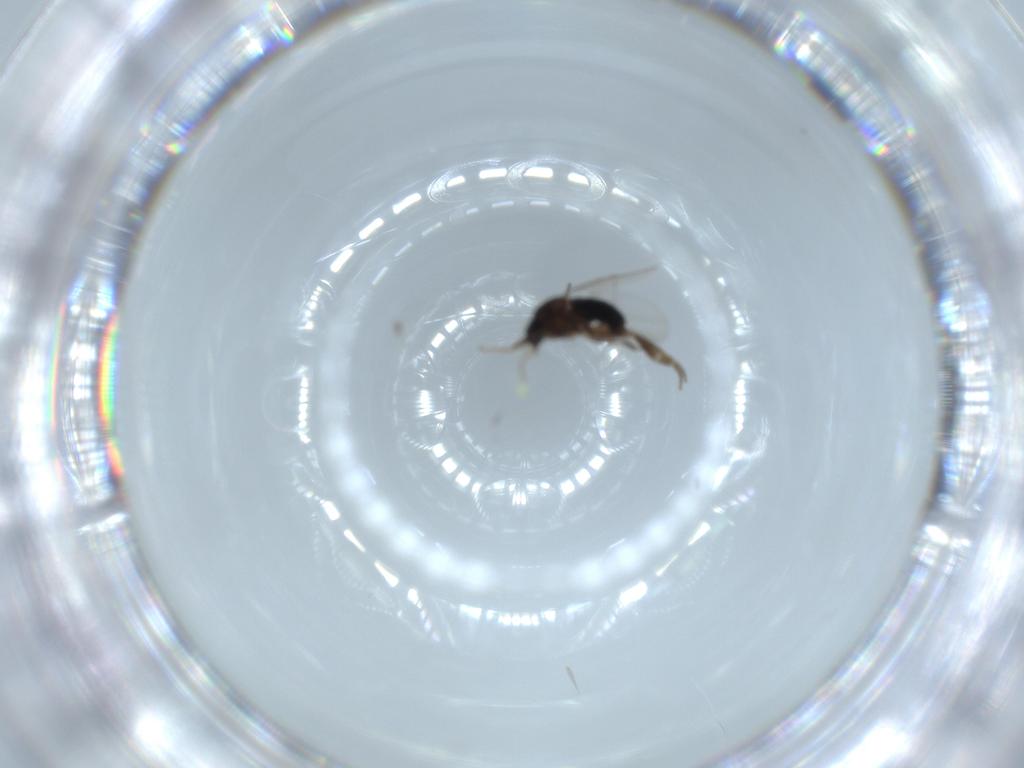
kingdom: Animalia
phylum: Arthropoda
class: Insecta
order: Diptera
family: Phoridae
